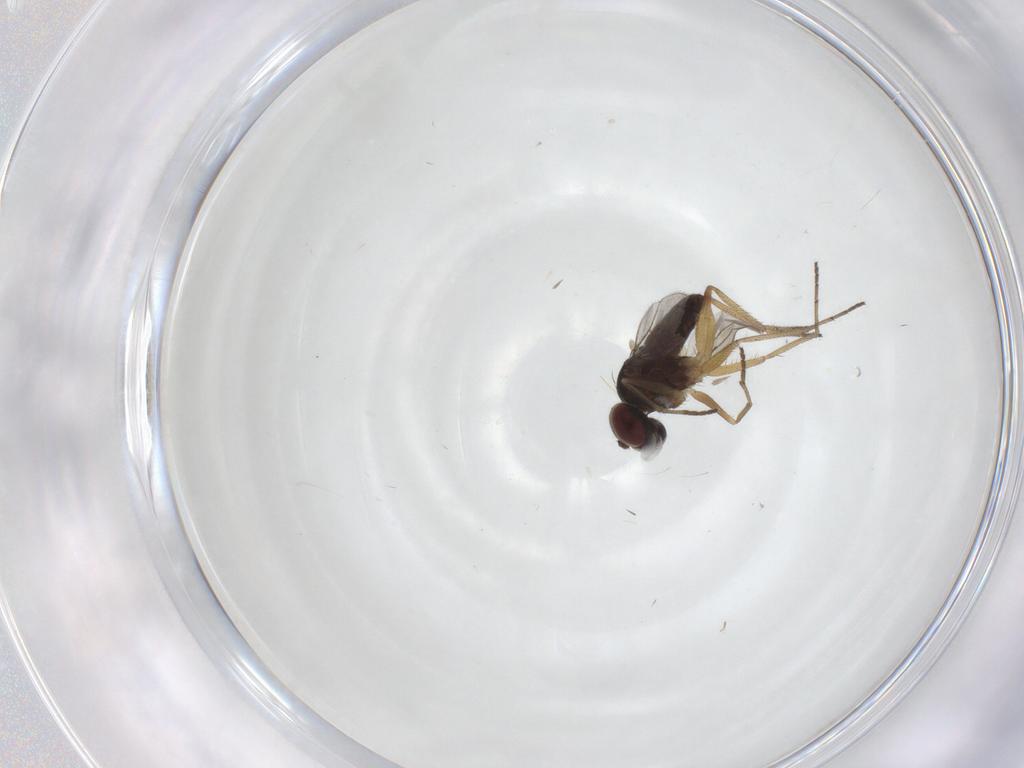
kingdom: Animalia
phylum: Arthropoda
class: Insecta
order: Diptera
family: Dolichopodidae
